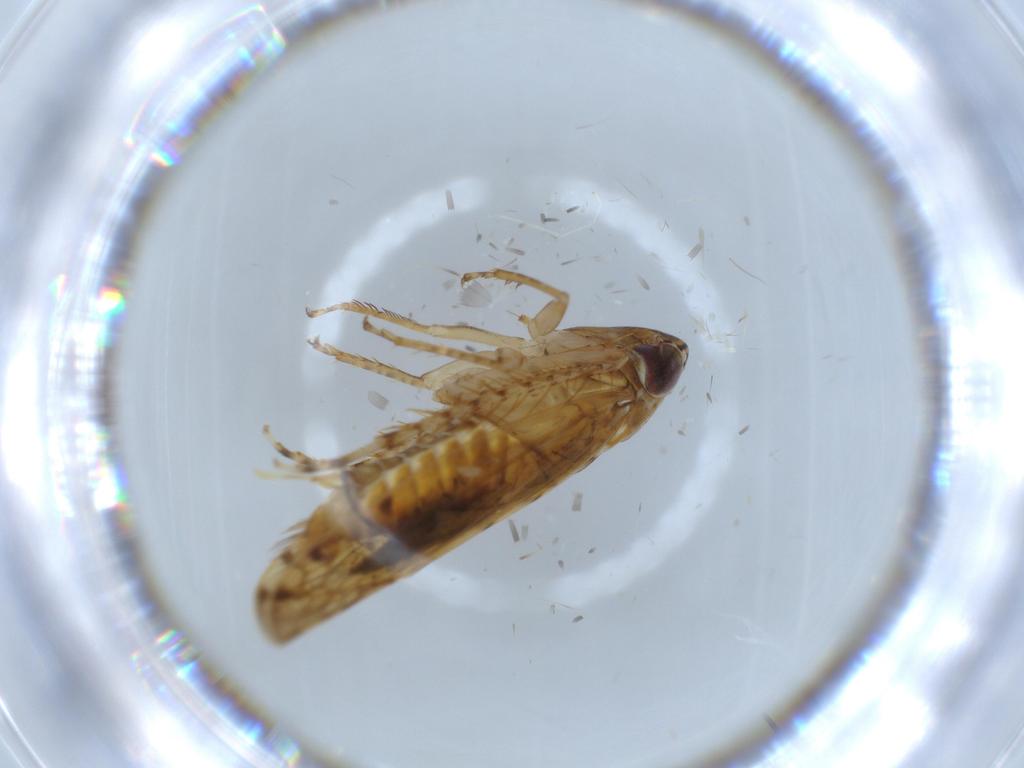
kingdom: Animalia
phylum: Arthropoda
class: Insecta
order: Hemiptera
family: Cicadellidae
